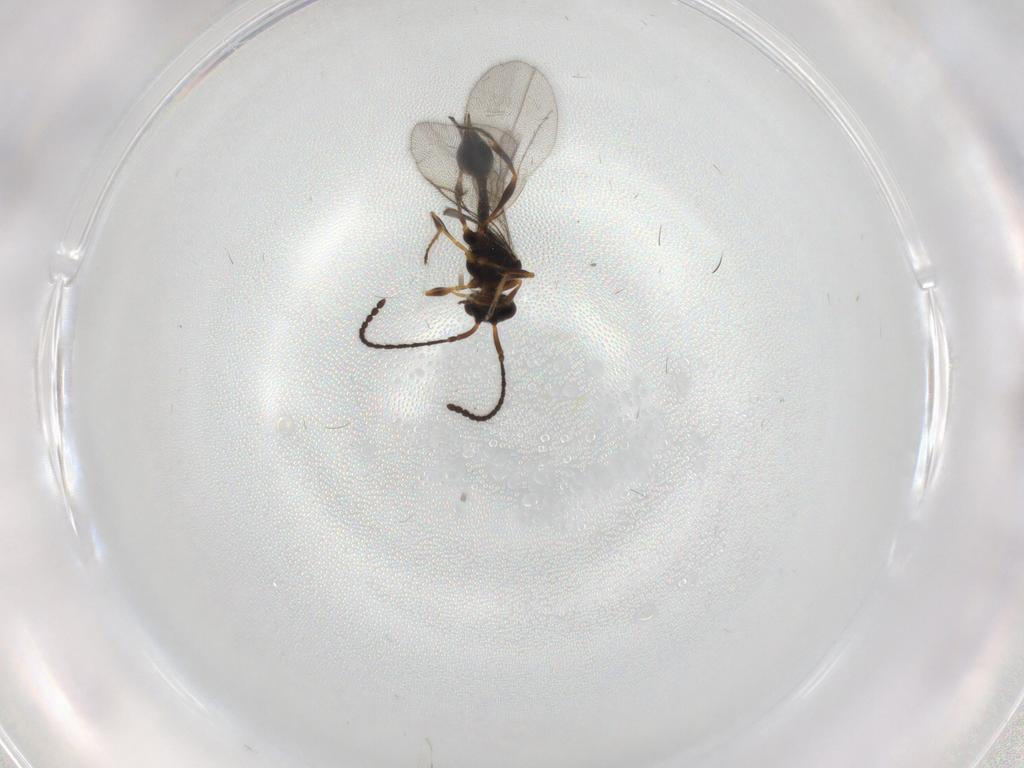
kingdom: Animalia
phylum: Arthropoda
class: Insecta
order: Hymenoptera
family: Diapriidae
